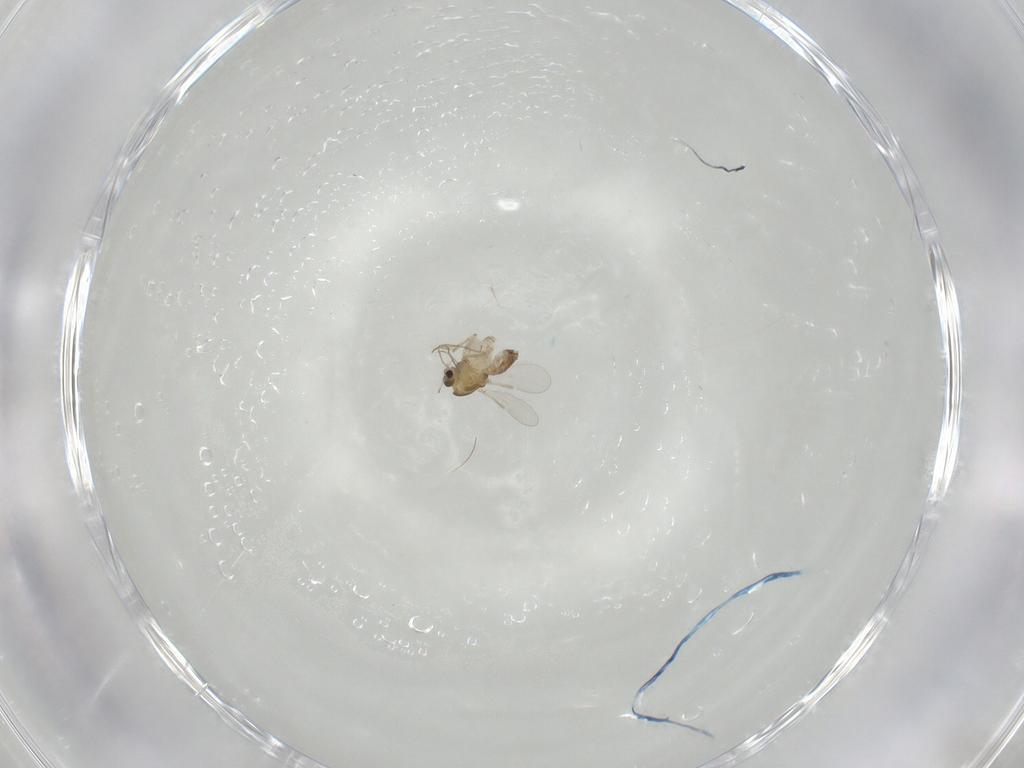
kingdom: Animalia
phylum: Arthropoda
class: Insecta
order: Diptera
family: Chironomidae
